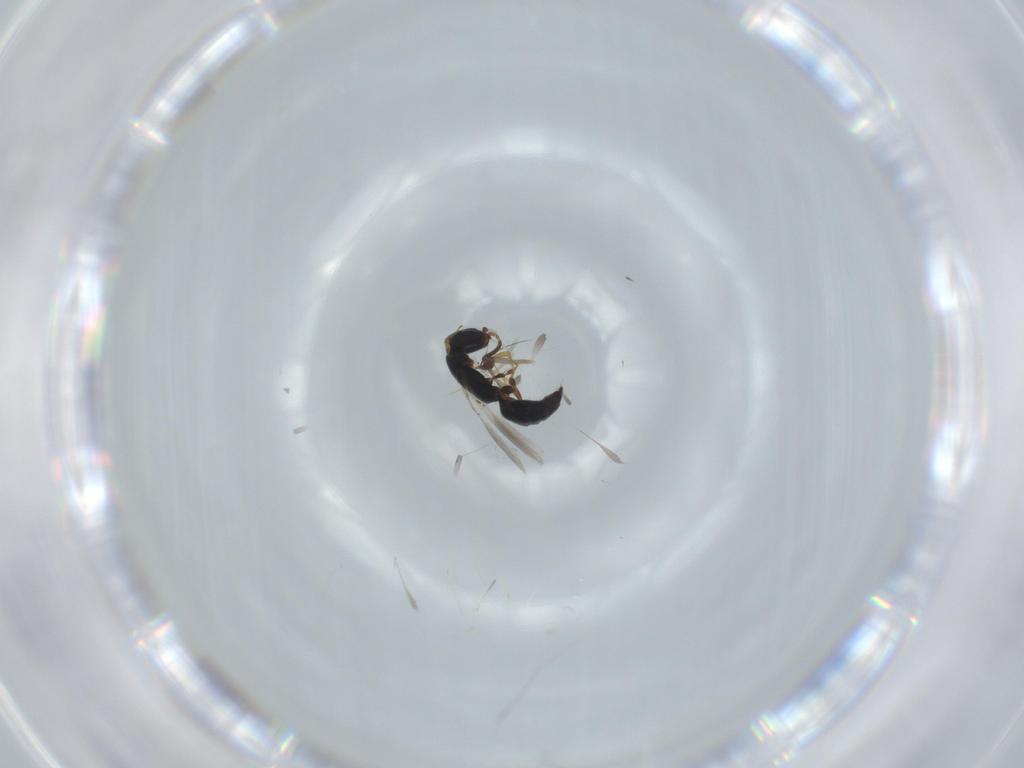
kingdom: Animalia
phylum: Arthropoda
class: Insecta
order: Hymenoptera
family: Bethylidae
